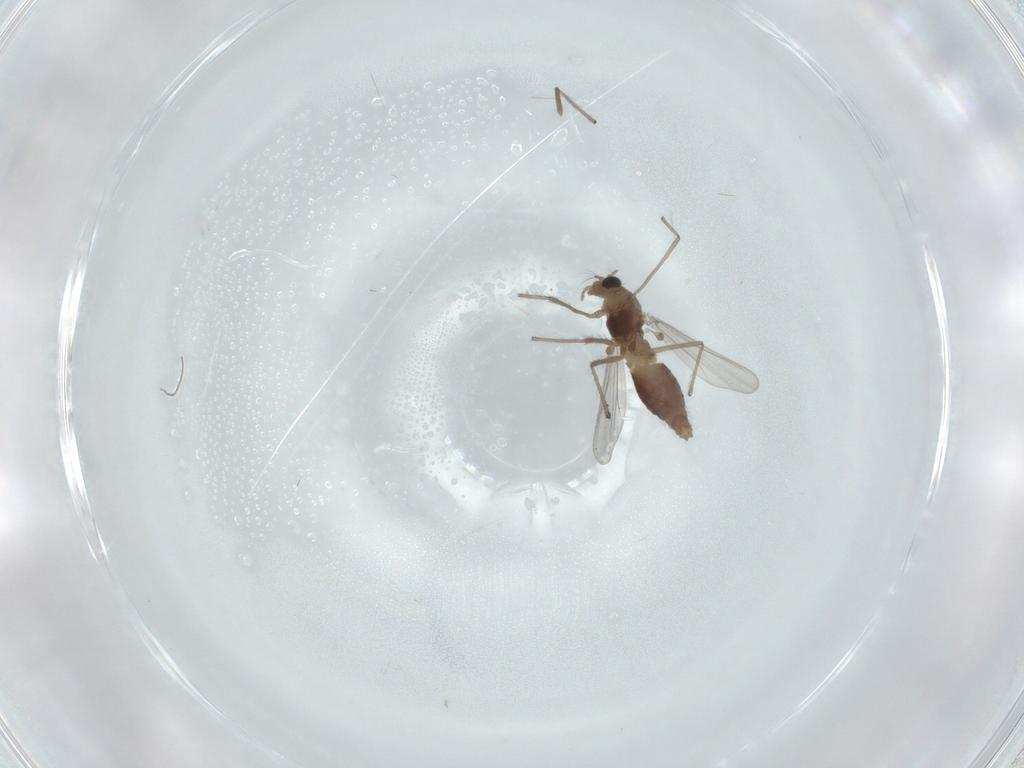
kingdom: Animalia
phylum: Arthropoda
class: Insecta
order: Diptera
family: Chironomidae
